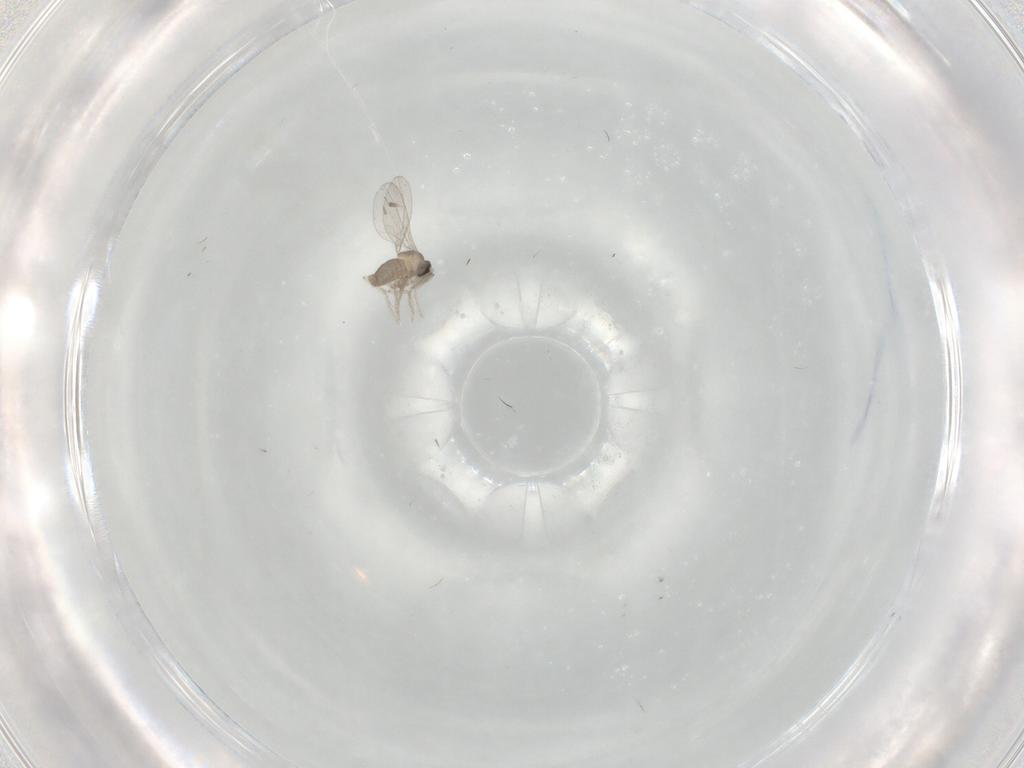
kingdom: Animalia
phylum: Arthropoda
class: Insecta
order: Diptera
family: Cecidomyiidae
